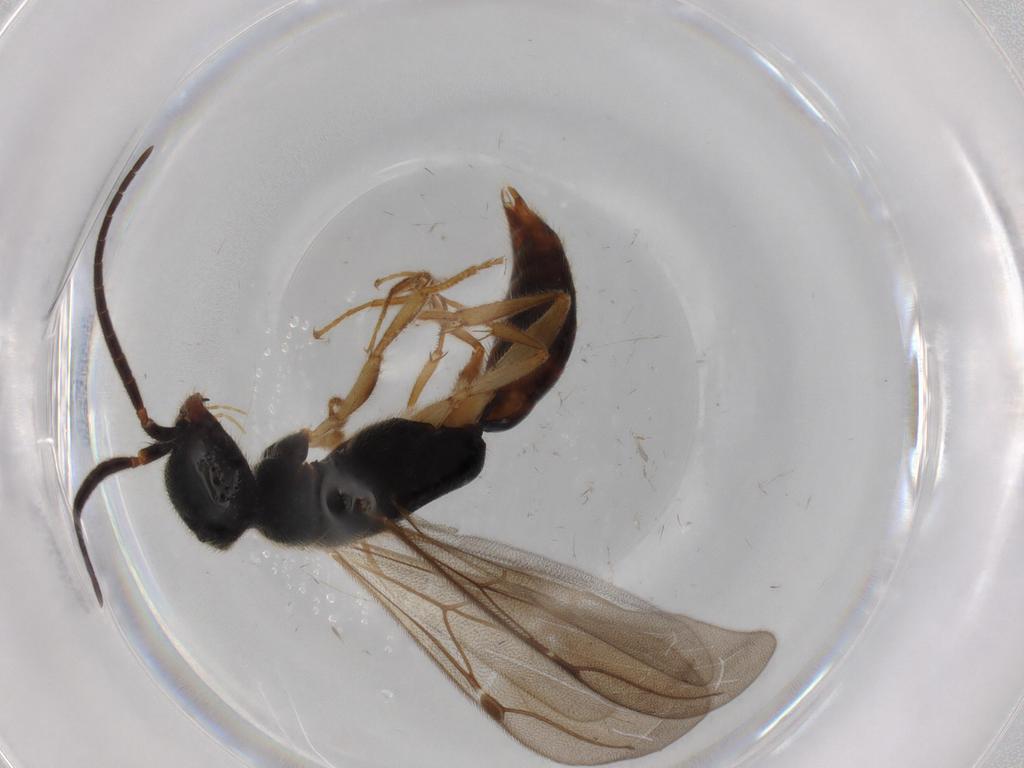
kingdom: Animalia
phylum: Arthropoda
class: Insecta
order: Hymenoptera
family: Bethylidae
